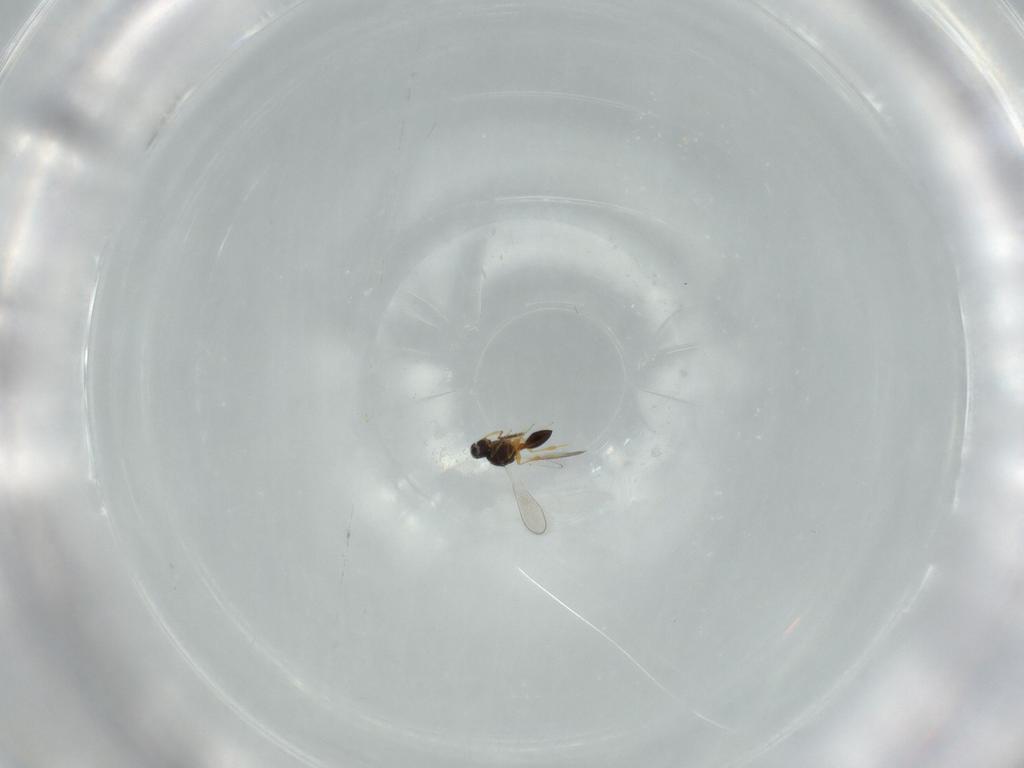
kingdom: Animalia
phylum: Arthropoda
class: Insecta
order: Hymenoptera
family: Platygastridae
